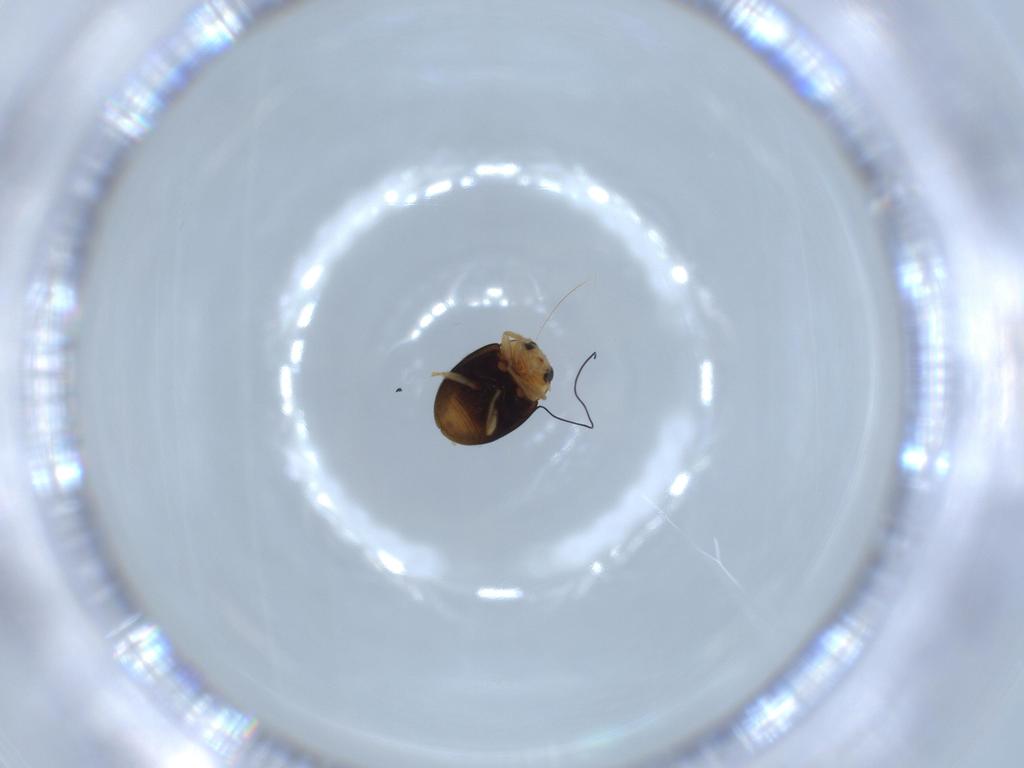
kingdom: Animalia
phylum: Arthropoda
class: Insecta
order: Coleoptera
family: Coccinellidae
